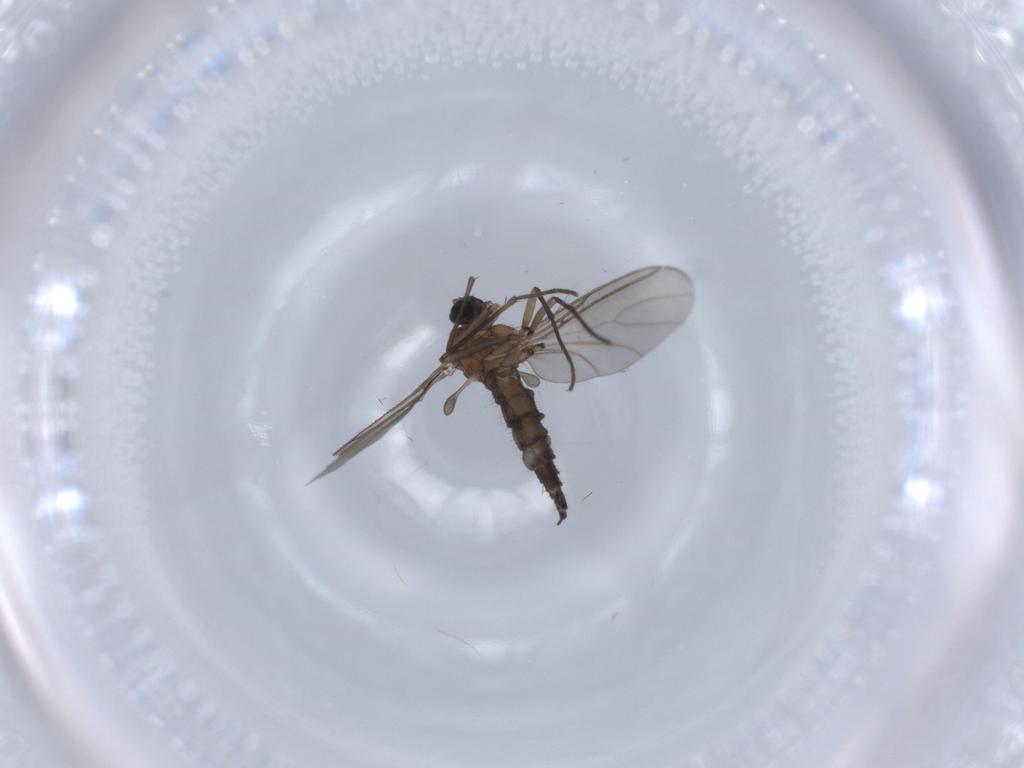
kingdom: Animalia
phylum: Arthropoda
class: Insecta
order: Diptera
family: Sciaridae
